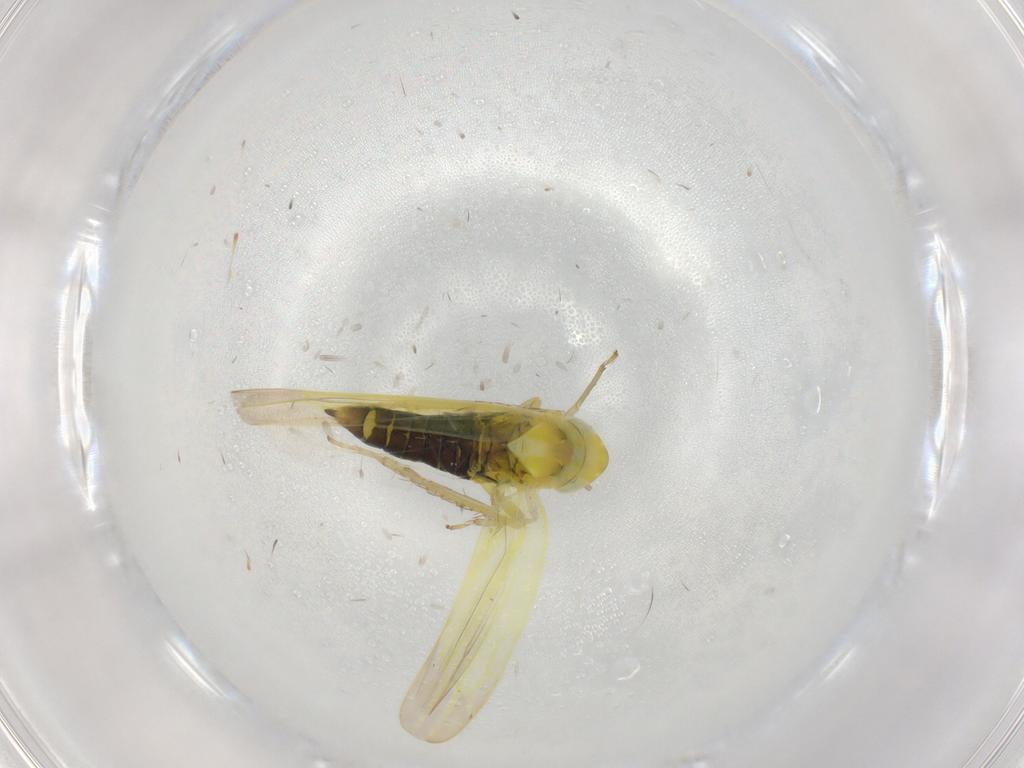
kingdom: Animalia
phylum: Arthropoda
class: Insecta
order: Hemiptera
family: Cicadellidae
